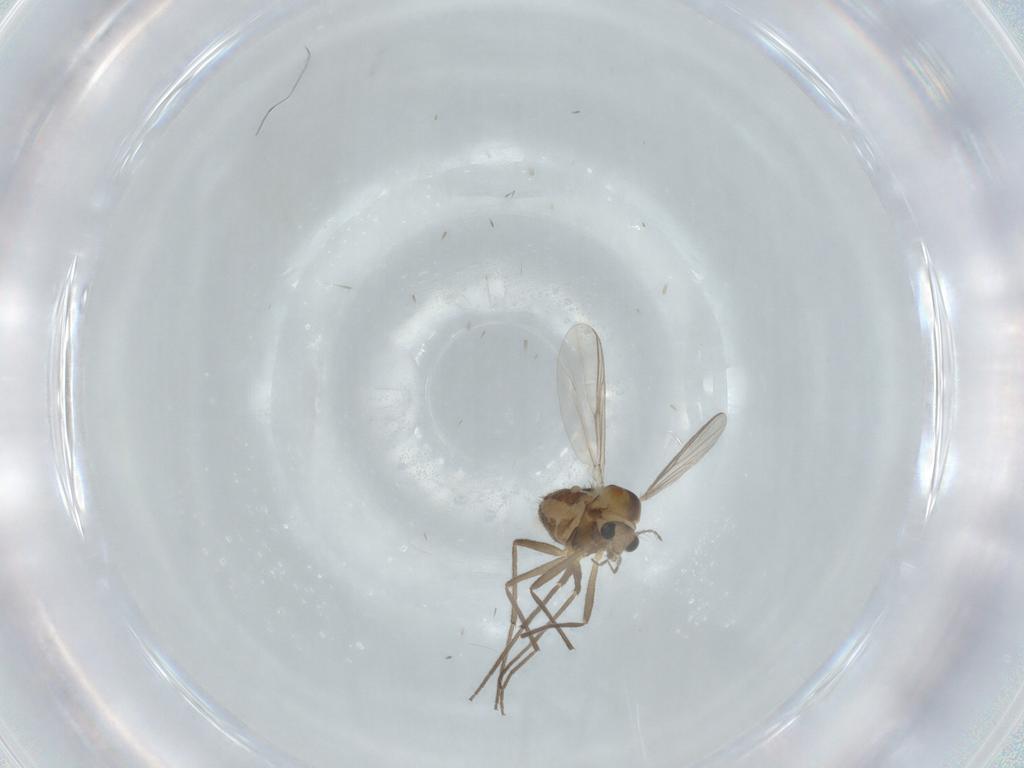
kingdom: Animalia
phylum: Arthropoda
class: Insecta
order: Diptera
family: Chironomidae
